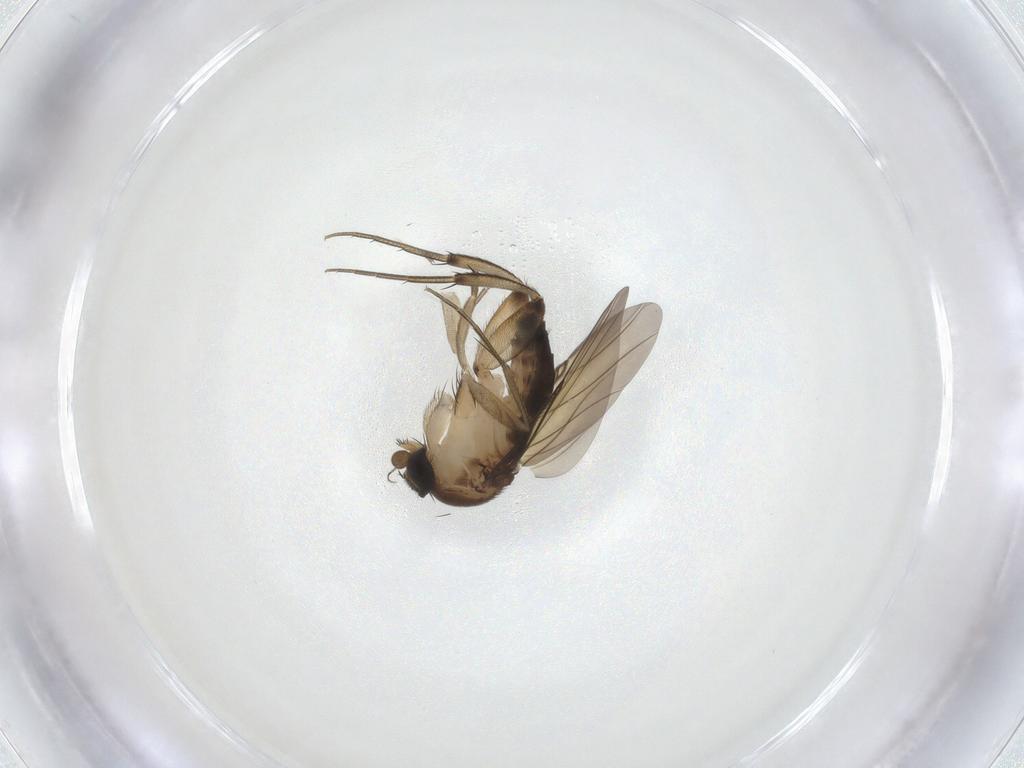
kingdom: Animalia
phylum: Arthropoda
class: Insecta
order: Diptera
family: Phoridae
